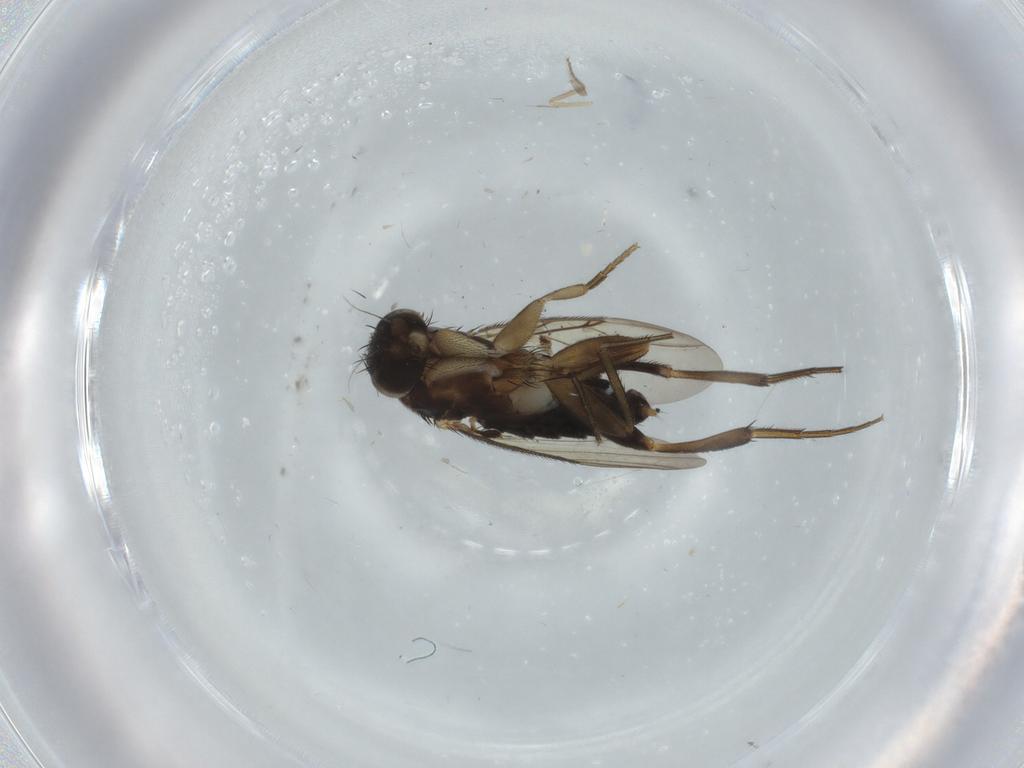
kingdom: Animalia
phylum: Arthropoda
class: Insecta
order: Diptera
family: Phoridae
